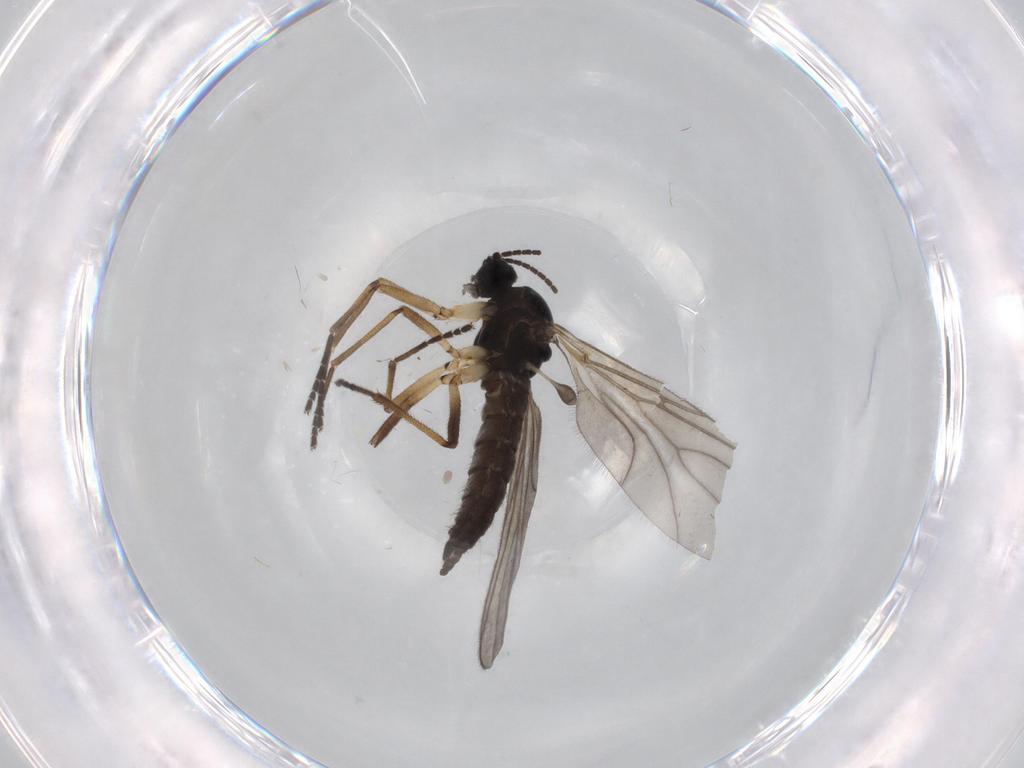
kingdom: Animalia
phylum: Arthropoda
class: Insecta
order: Diptera
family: Sciaridae
